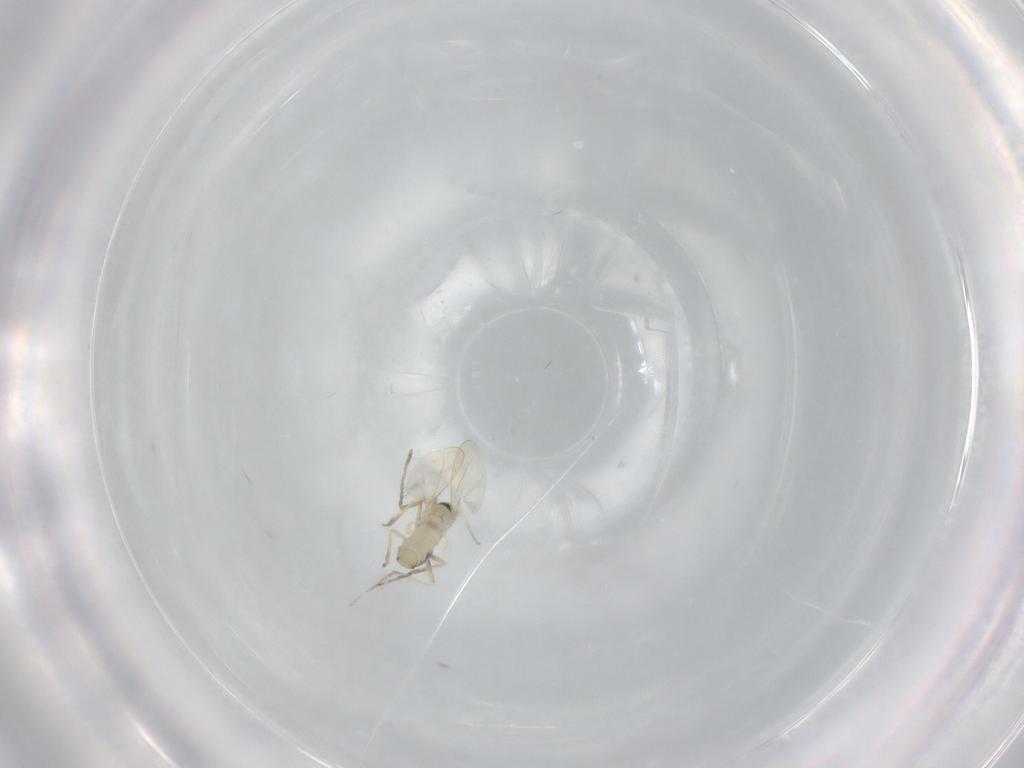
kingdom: Animalia
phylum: Arthropoda
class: Insecta
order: Diptera
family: Cecidomyiidae
